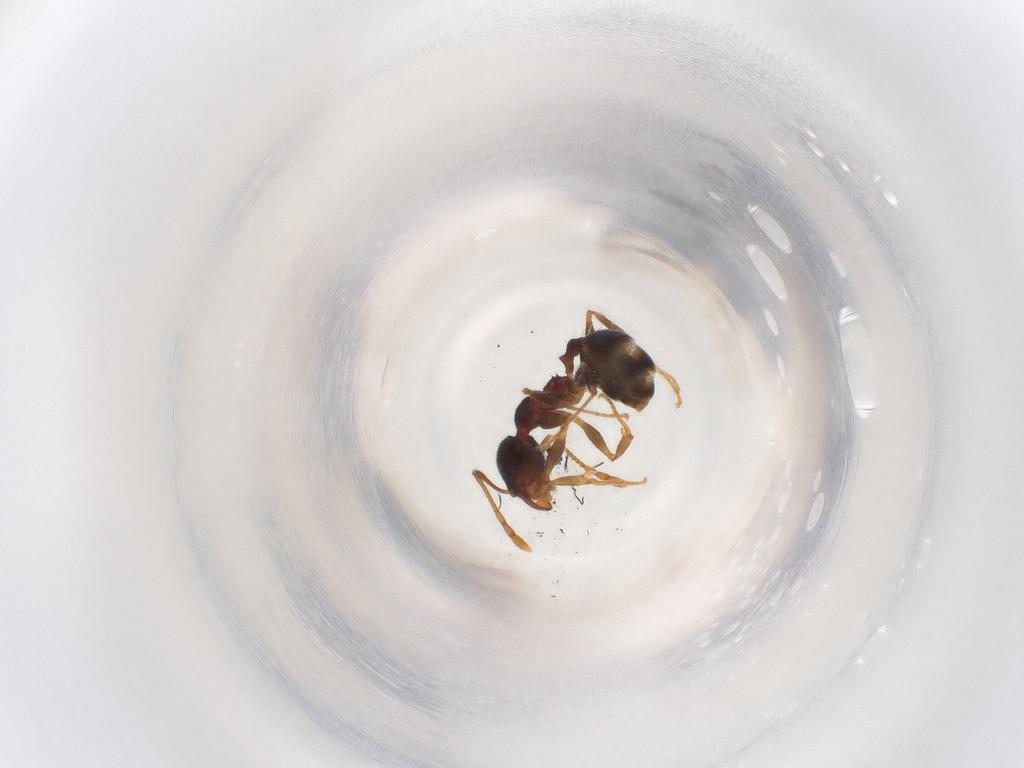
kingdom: Animalia
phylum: Arthropoda
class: Insecta
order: Hymenoptera
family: Formicidae
